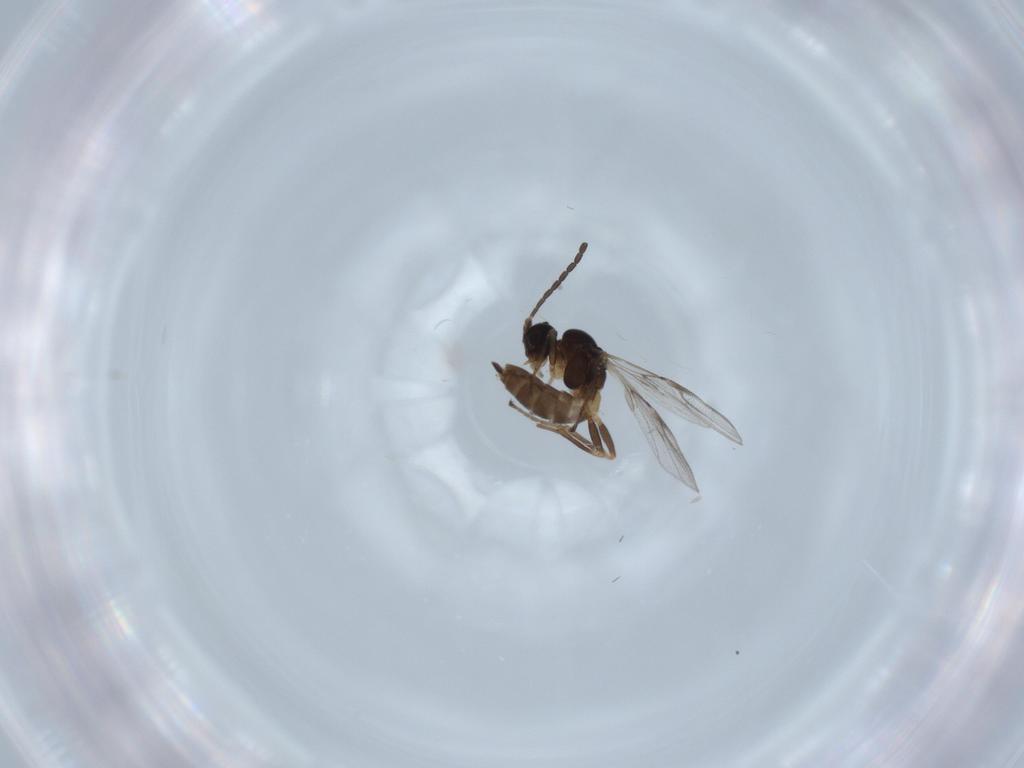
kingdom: Animalia
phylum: Arthropoda
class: Insecta
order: Hymenoptera
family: Braconidae
